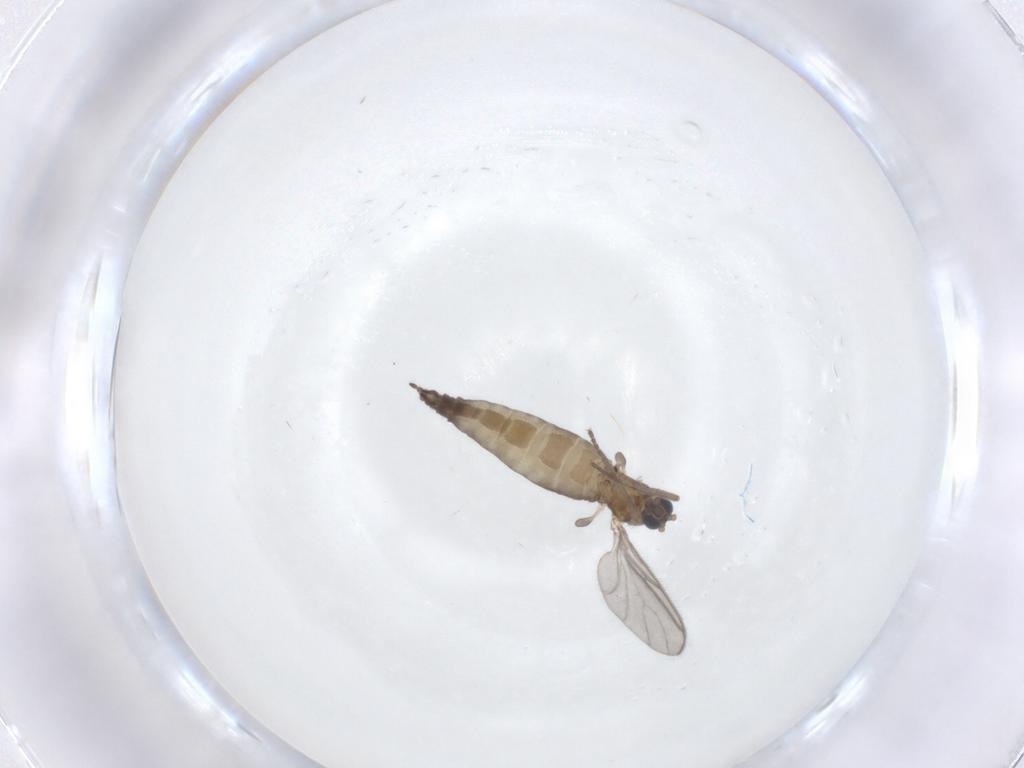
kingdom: Animalia
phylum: Arthropoda
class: Insecta
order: Diptera
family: Sciaridae
